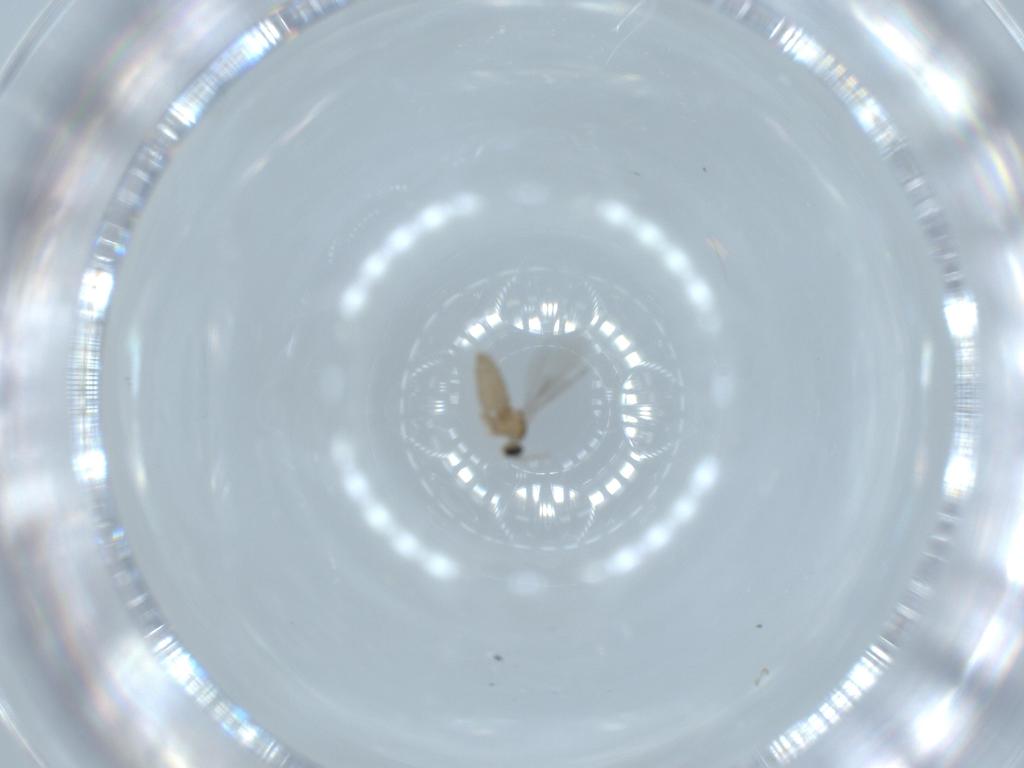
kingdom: Animalia
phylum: Arthropoda
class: Insecta
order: Diptera
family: Cecidomyiidae
